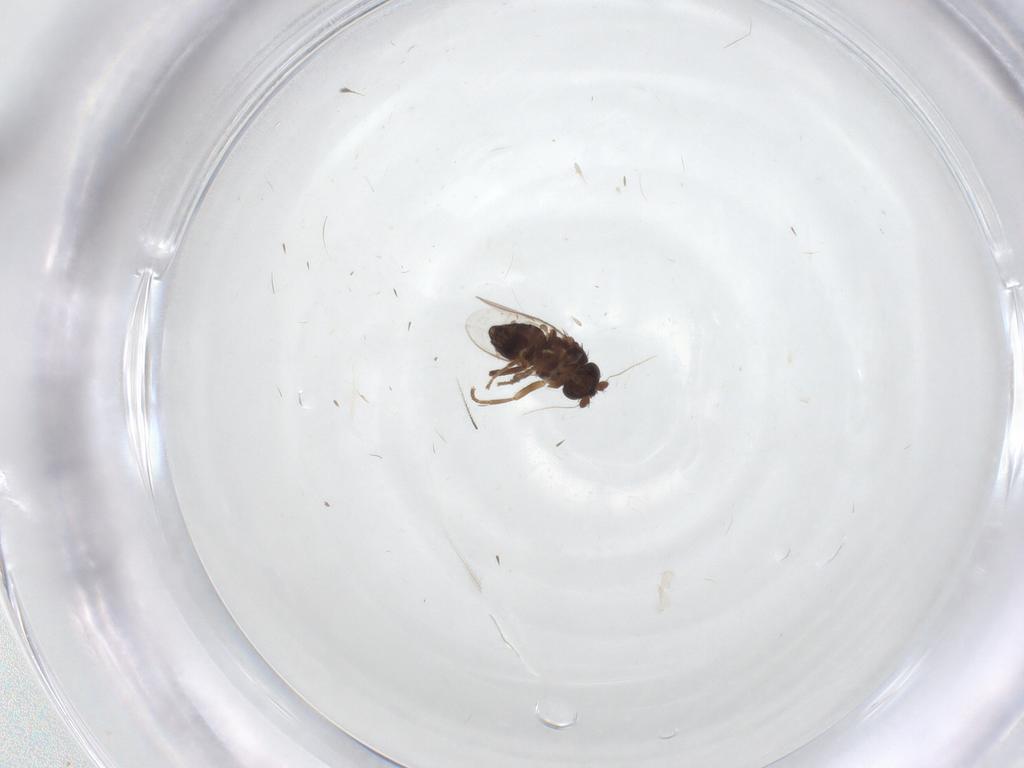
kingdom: Animalia
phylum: Arthropoda
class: Insecta
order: Diptera
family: Sphaeroceridae
